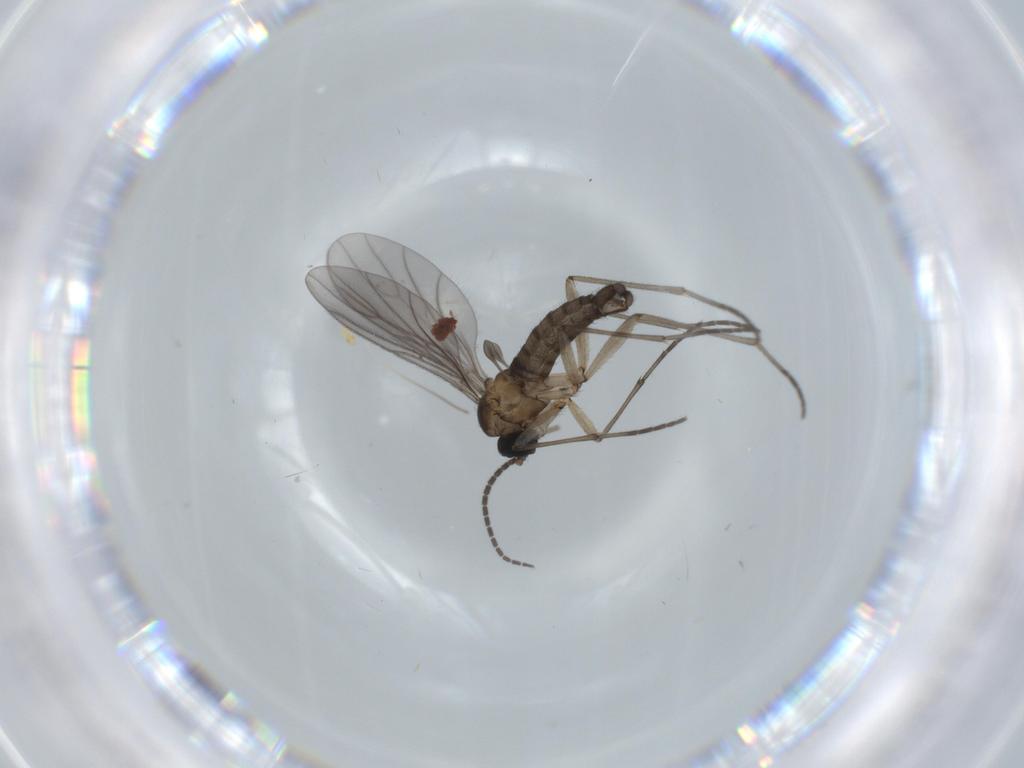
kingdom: Animalia
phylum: Arthropoda
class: Insecta
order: Diptera
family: Sciaridae
